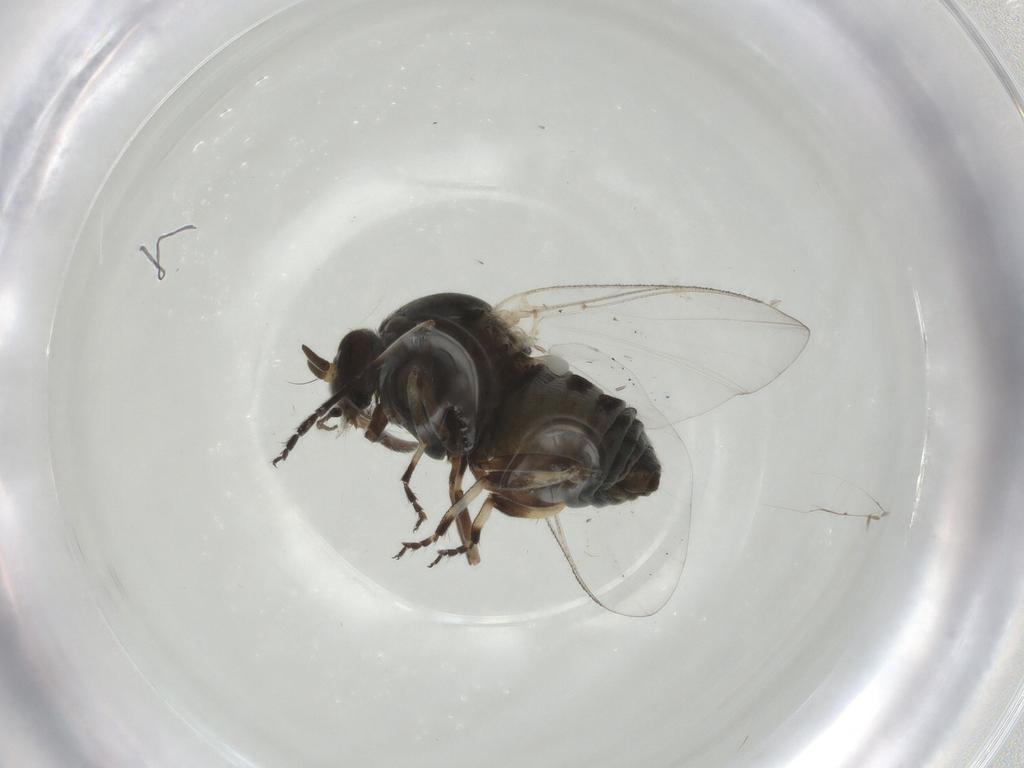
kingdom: Animalia
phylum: Arthropoda
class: Insecta
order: Diptera
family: Simuliidae
